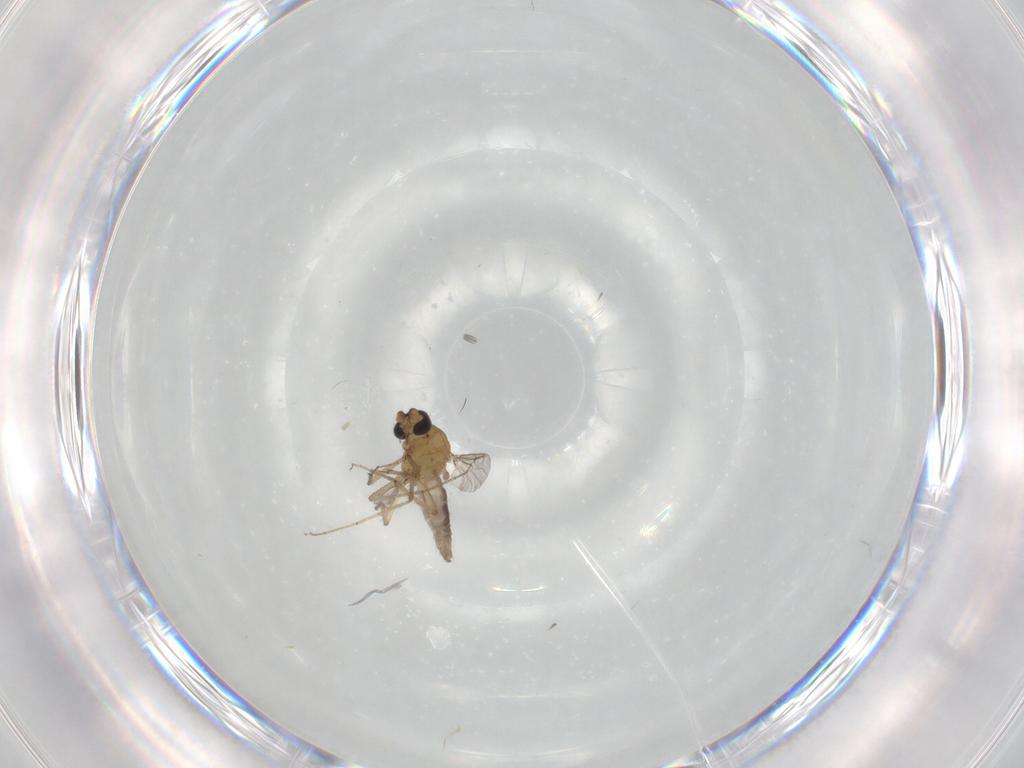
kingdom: Animalia
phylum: Arthropoda
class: Insecta
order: Diptera
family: Ceratopogonidae
